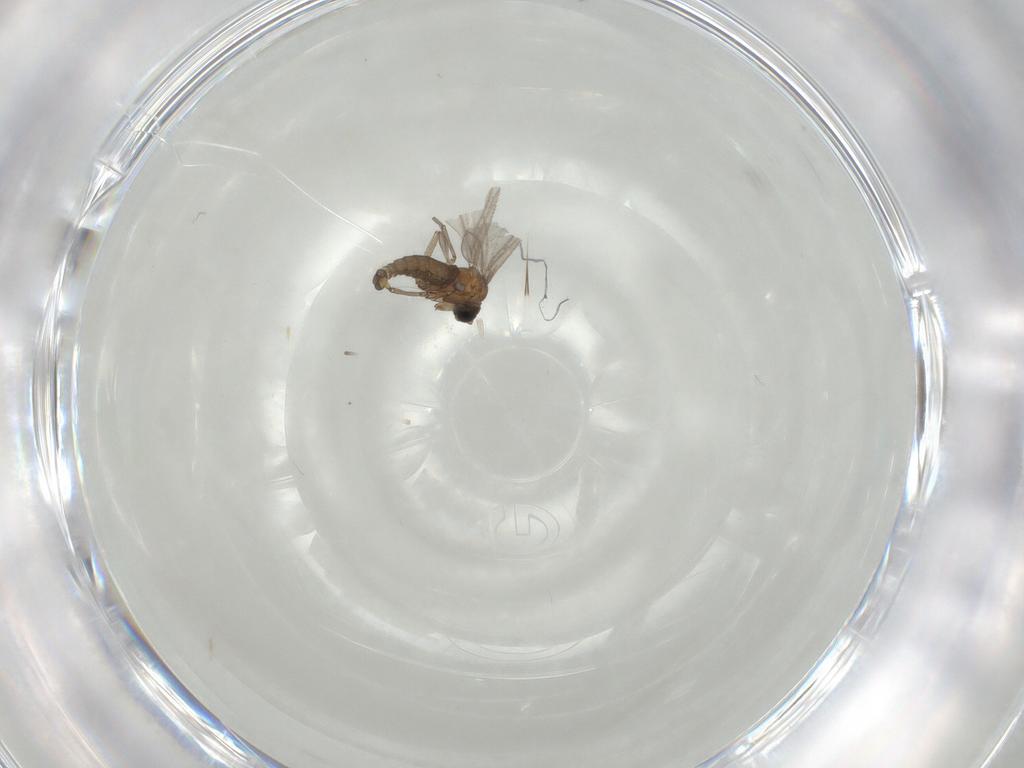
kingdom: Animalia
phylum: Arthropoda
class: Insecta
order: Diptera
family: Sciaridae
